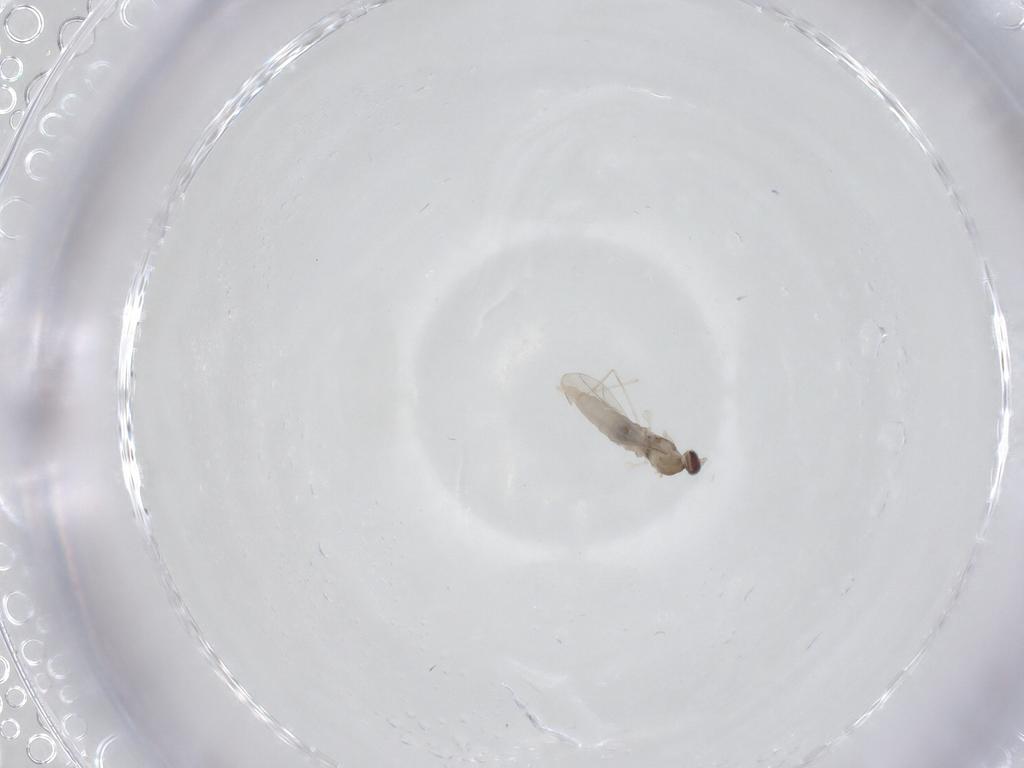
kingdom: Animalia
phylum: Arthropoda
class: Insecta
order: Diptera
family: Cecidomyiidae
